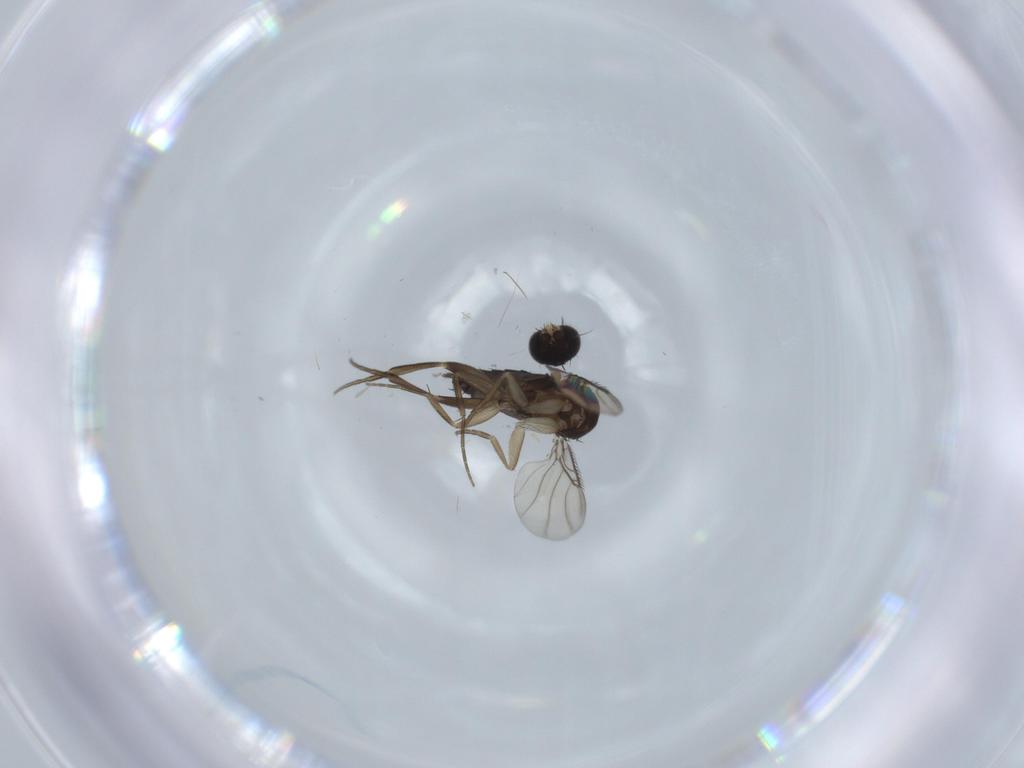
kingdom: Animalia
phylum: Arthropoda
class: Insecta
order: Diptera
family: Phoridae
